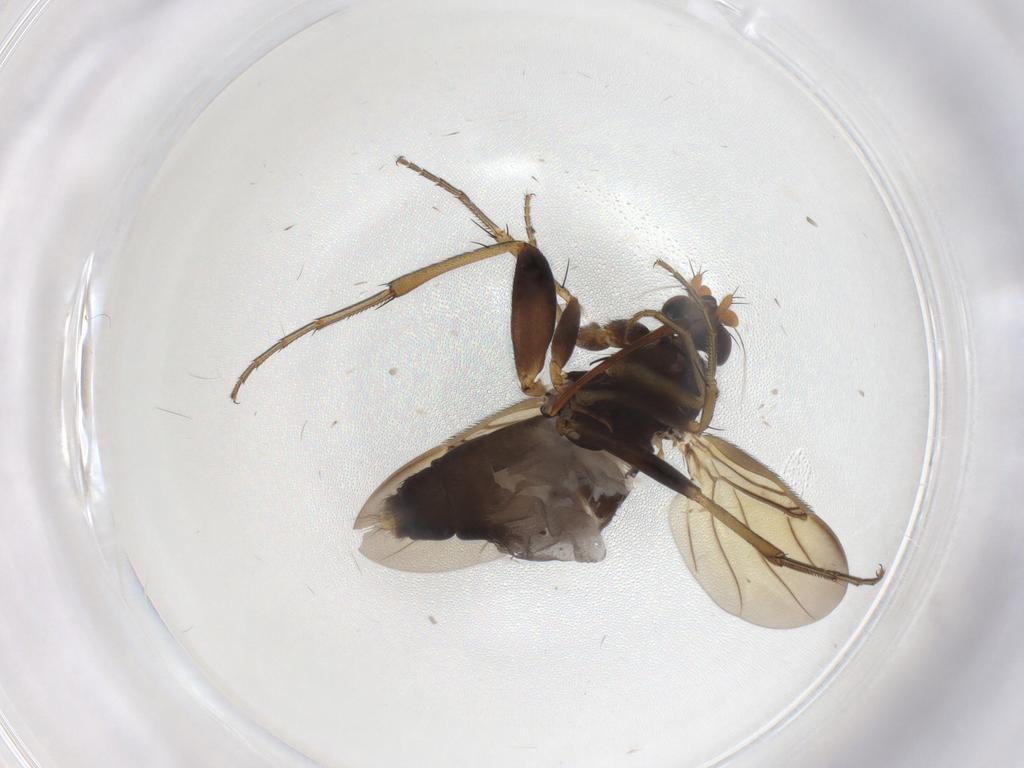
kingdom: Animalia
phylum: Arthropoda
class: Insecta
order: Diptera
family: Phoridae
